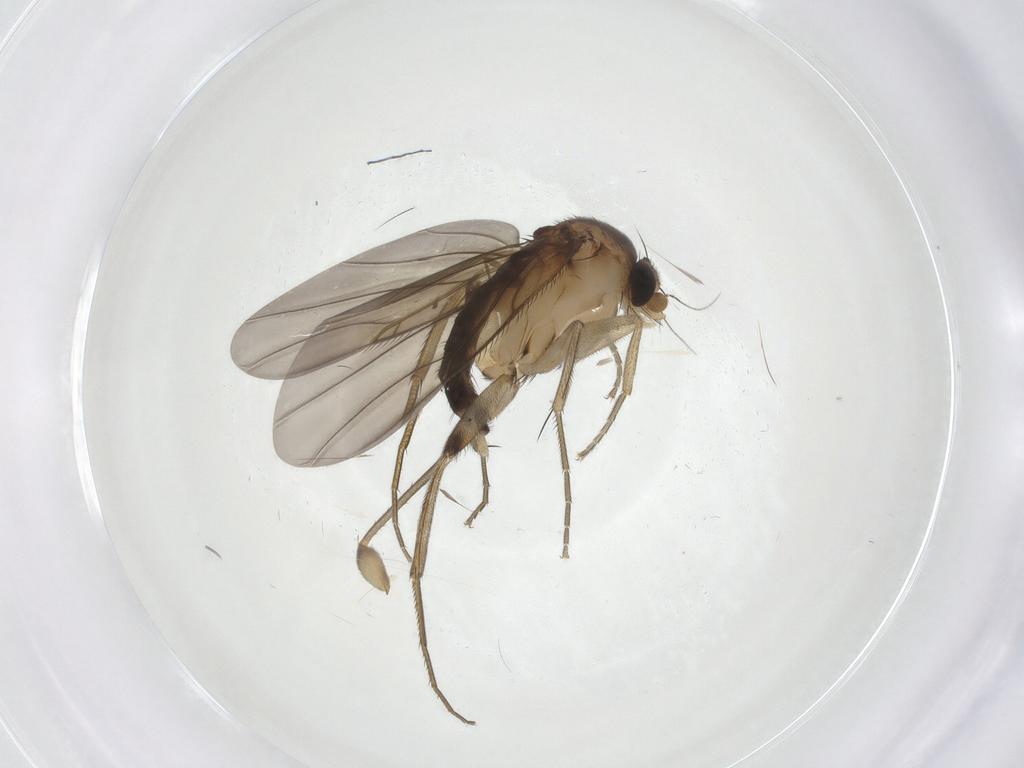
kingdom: Animalia
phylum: Arthropoda
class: Insecta
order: Diptera
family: Phoridae
